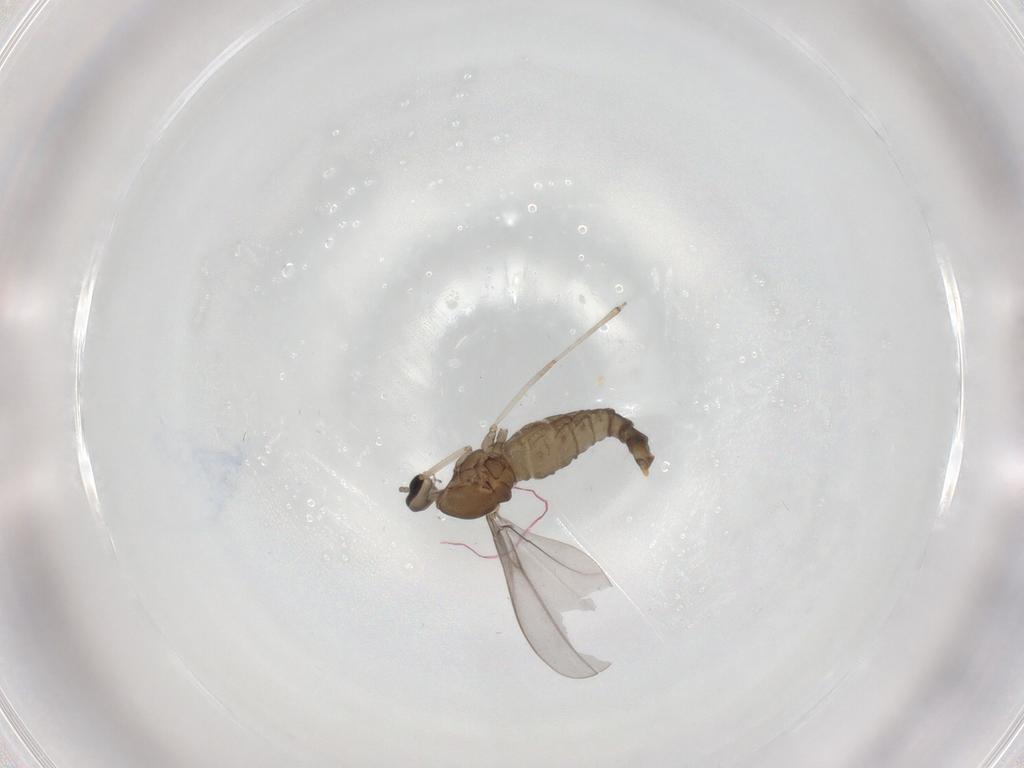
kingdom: Animalia
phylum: Arthropoda
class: Insecta
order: Diptera
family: Cecidomyiidae
